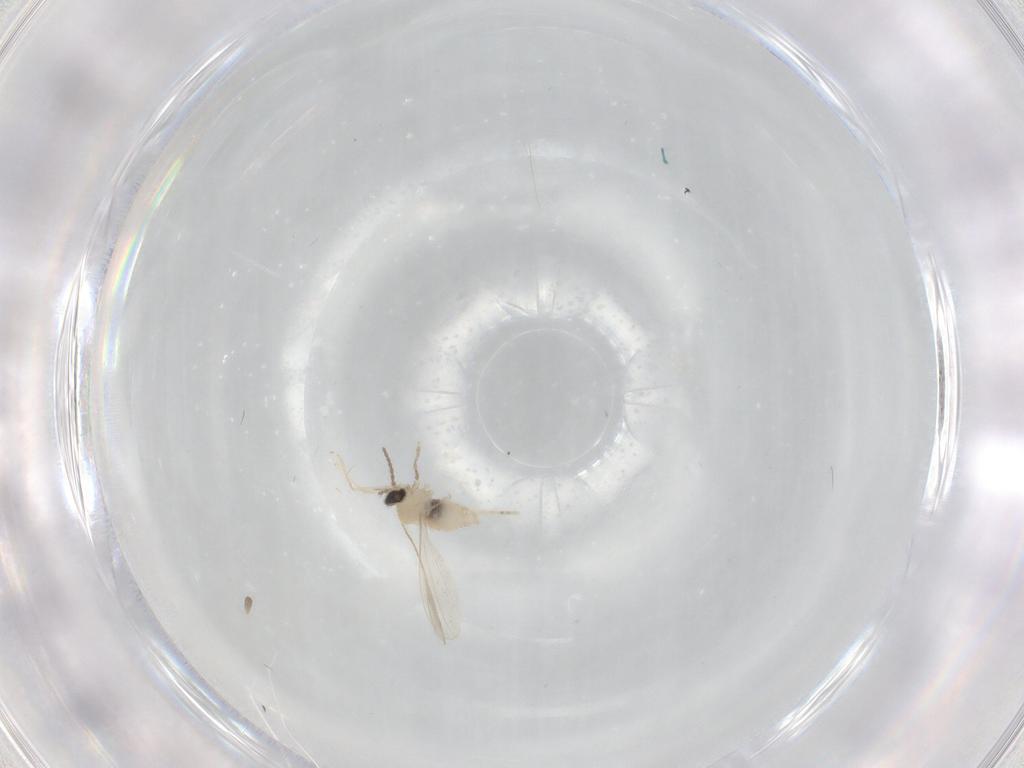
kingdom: Animalia
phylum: Arthropoda
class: Insecta
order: Diptera
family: Cecidomyiidae
